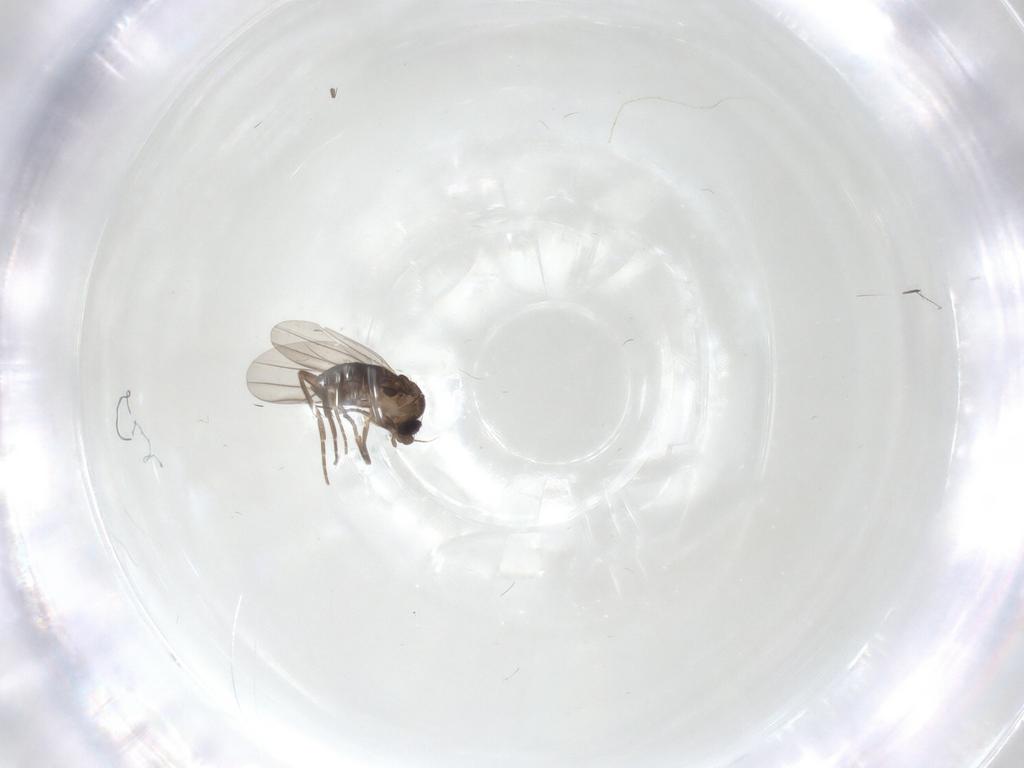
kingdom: Animalia
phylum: Arthropoda
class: Insecta
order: Diptera
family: Phoridae
